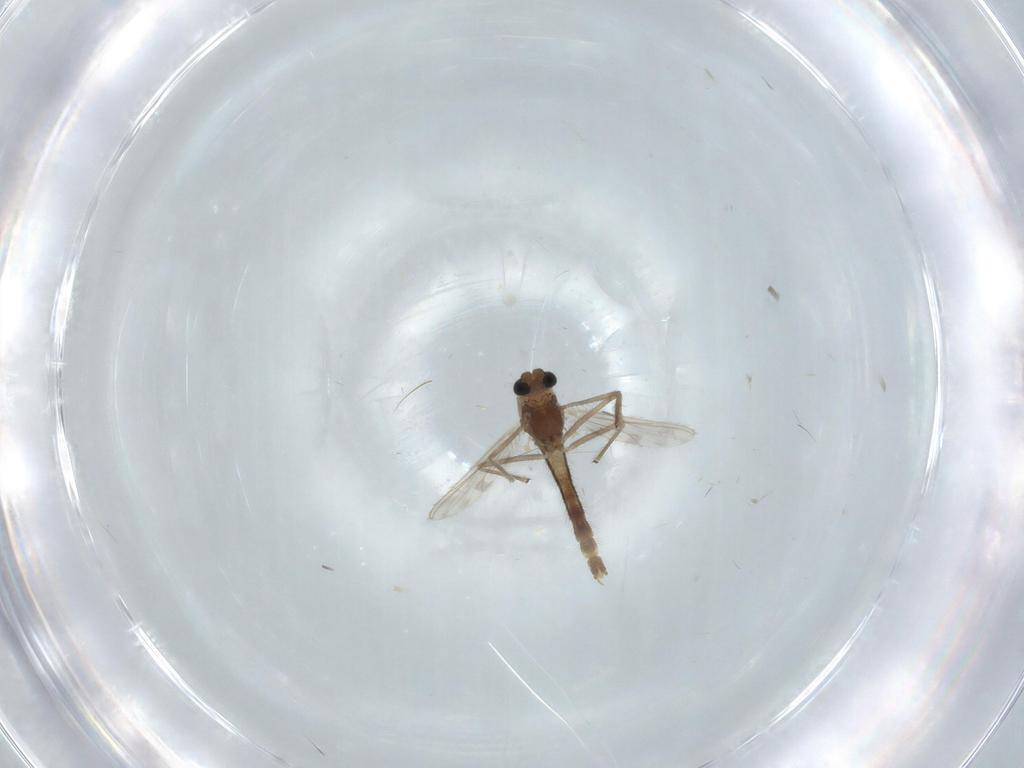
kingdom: Animalia
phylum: Arthropoda
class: Insecta
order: Diptera
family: Chironomidae
